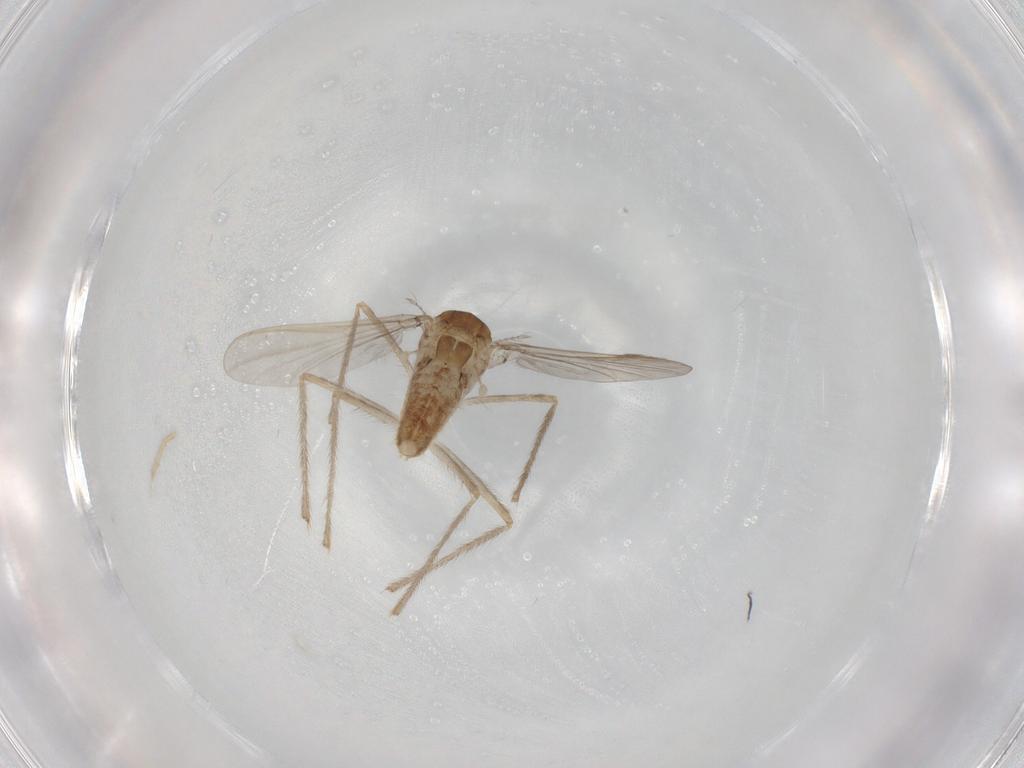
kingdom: Animalia
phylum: Arthropoda
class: Insecta
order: Diptera
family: Chironomidae
